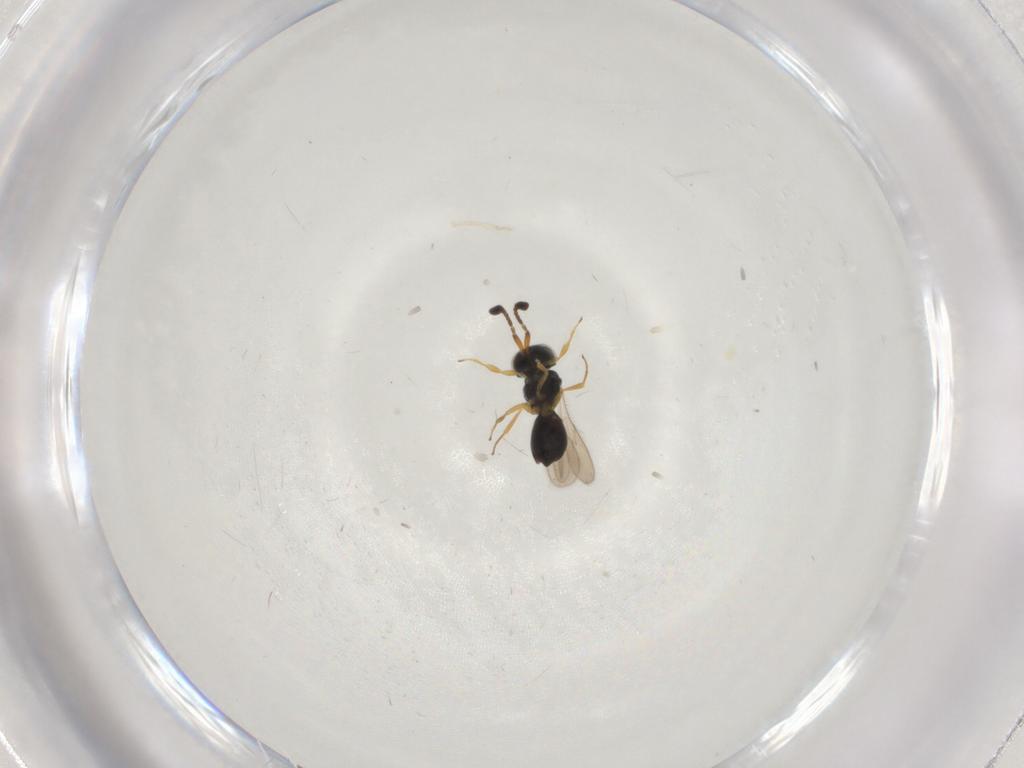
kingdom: Animalia
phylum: Arthropoda
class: Insecta
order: Hymenoptera
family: Scelionidae
